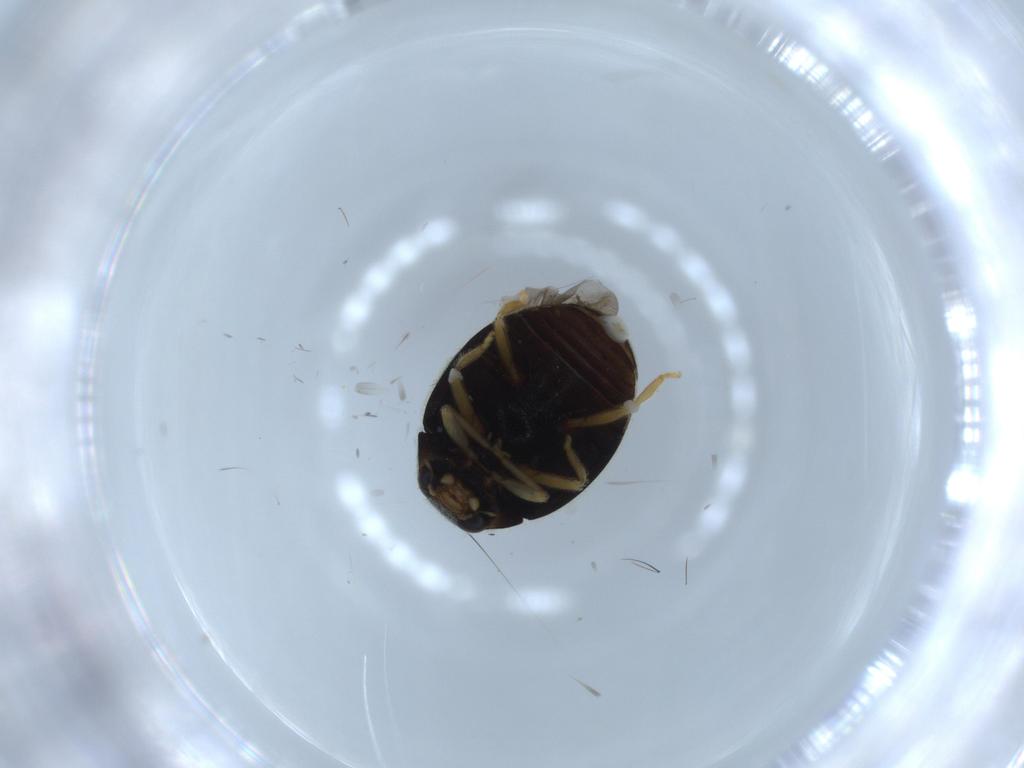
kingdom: Animalia
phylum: Arthropoda
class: Insecta
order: Coleoptera
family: Coccinellidae
